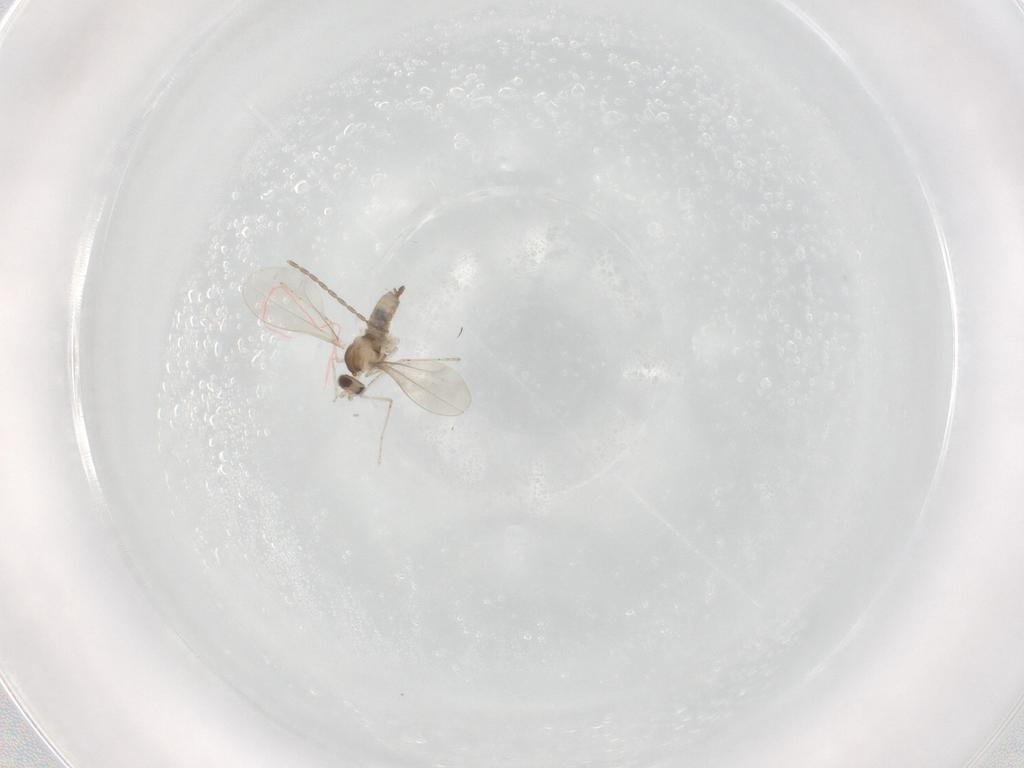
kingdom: Animalia
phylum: Arthropoda
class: Insecta
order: Diptera
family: Cecidomyiidae
